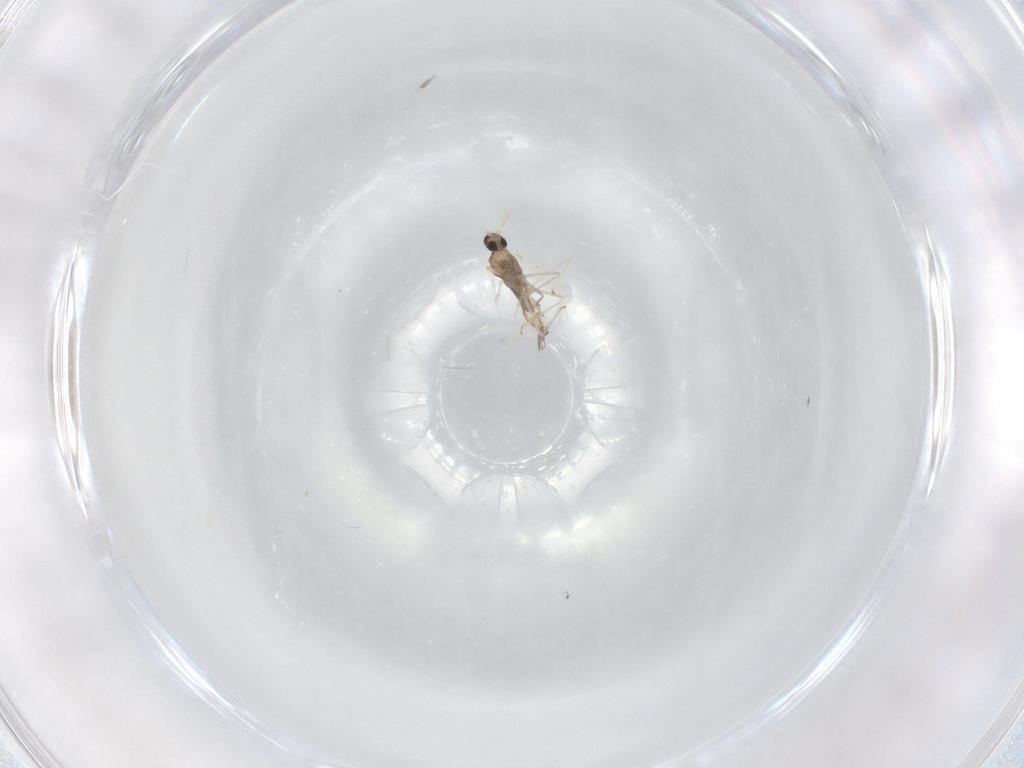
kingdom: Animalia
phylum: Arthropoda
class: Insecta
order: Diptera
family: Cecidomyiidae
